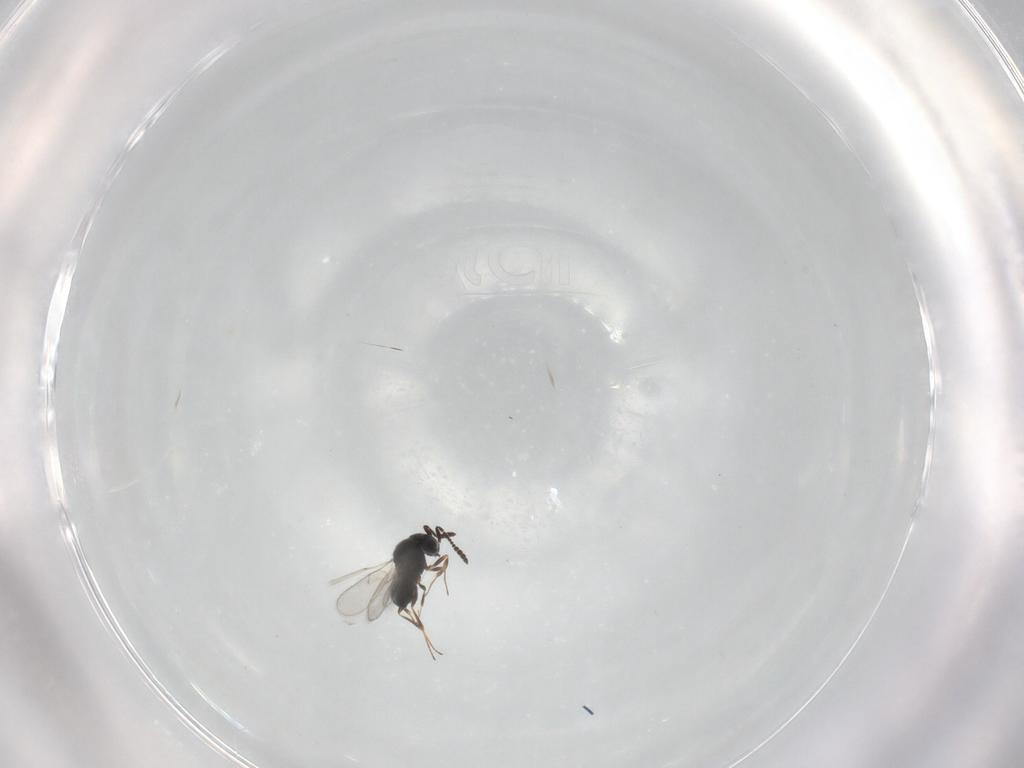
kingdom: Animalia
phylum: Arthropoda
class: Insecta
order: Hymenoptera
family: Scelionidae
